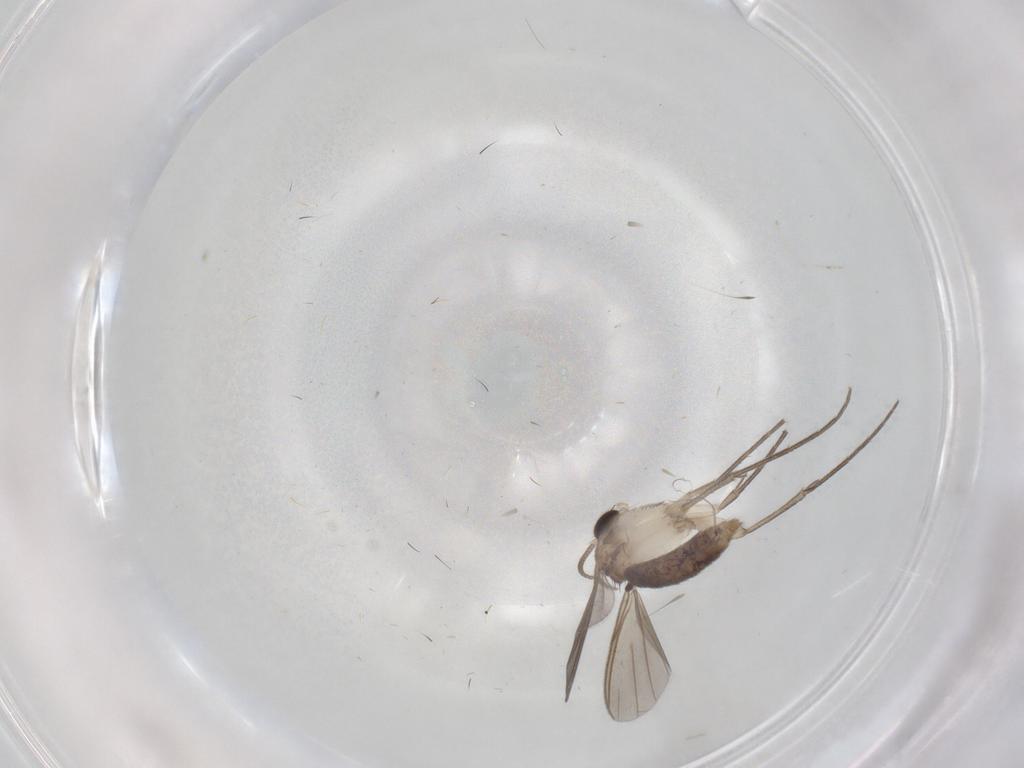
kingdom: Animalia
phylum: Arthropoda
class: Insecta
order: Diptera
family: Mycetophilidae
